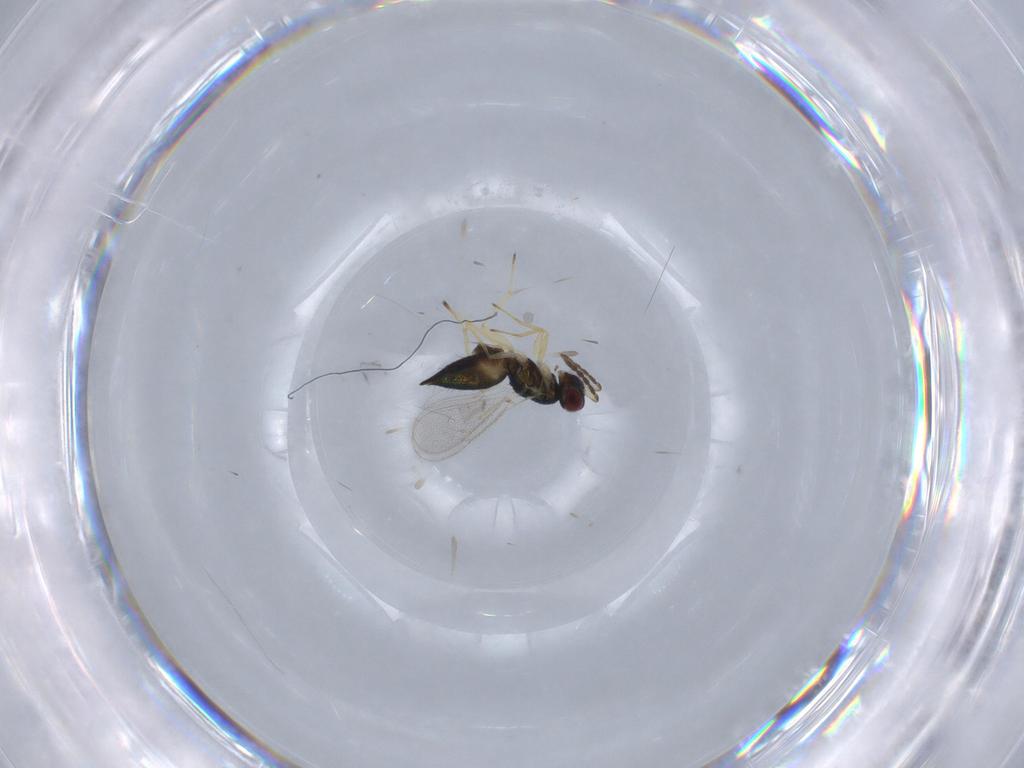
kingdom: Animalia
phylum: Arthropoda
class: Insecta
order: Hymenoptera
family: Eulophidae
